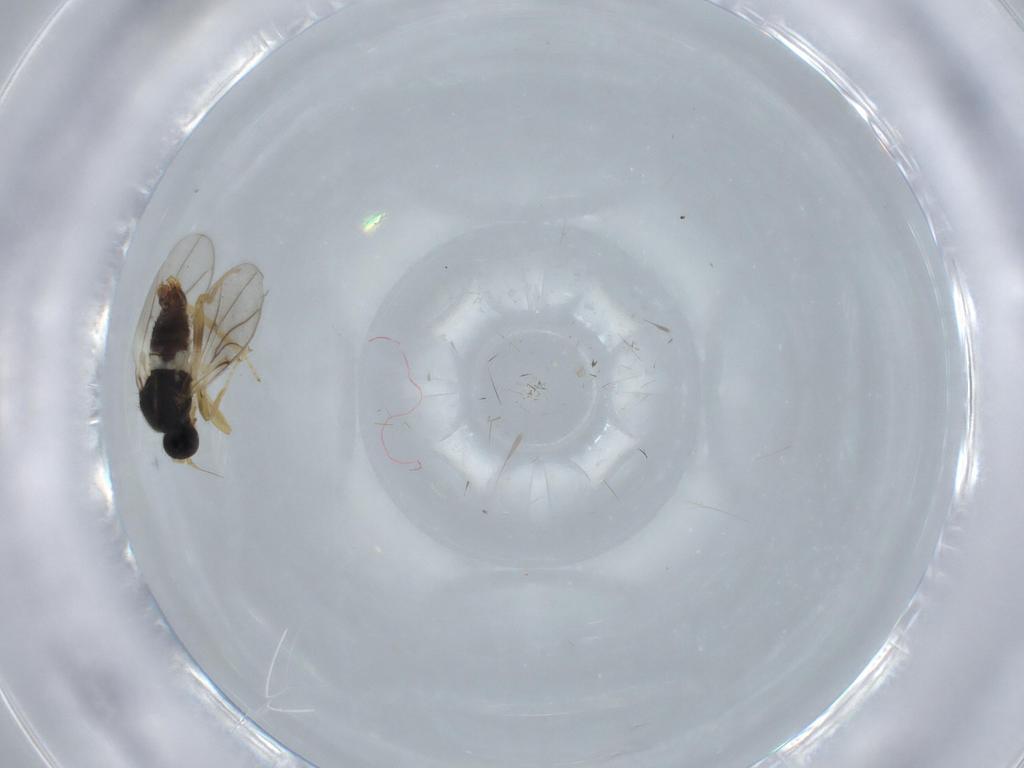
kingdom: Animalia
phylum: Arthropoda
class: Insecta
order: Diptera
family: Hybotidae
